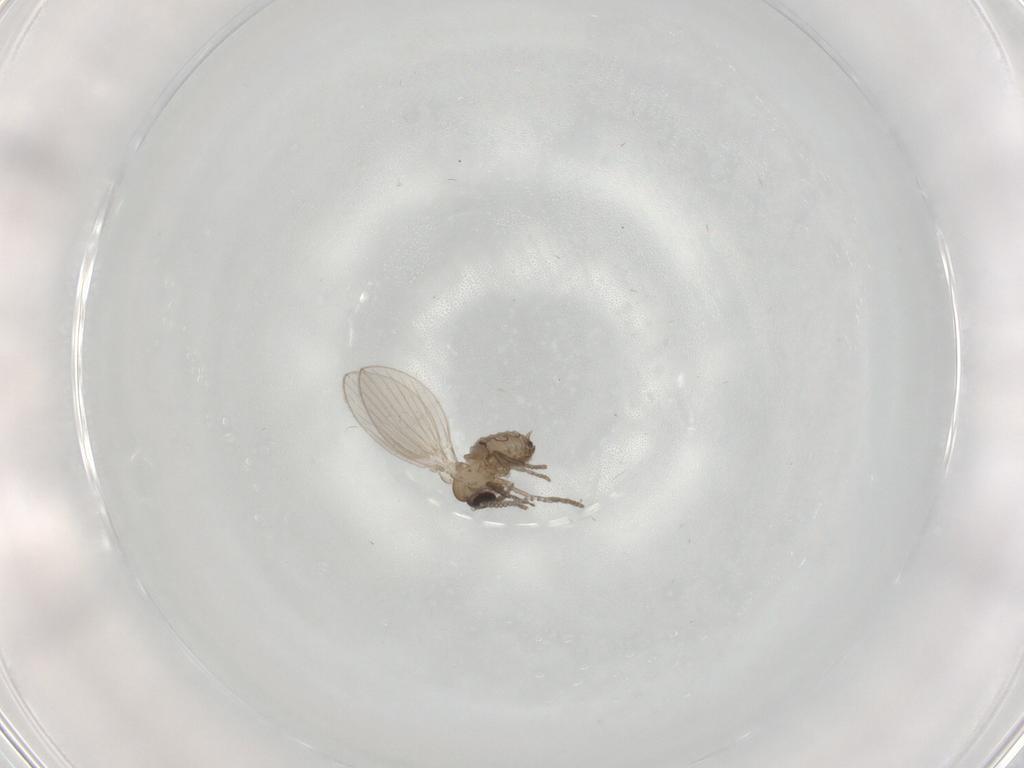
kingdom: Animalia
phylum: Arthropoda
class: Insecta
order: Diptera
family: Psychodidae
